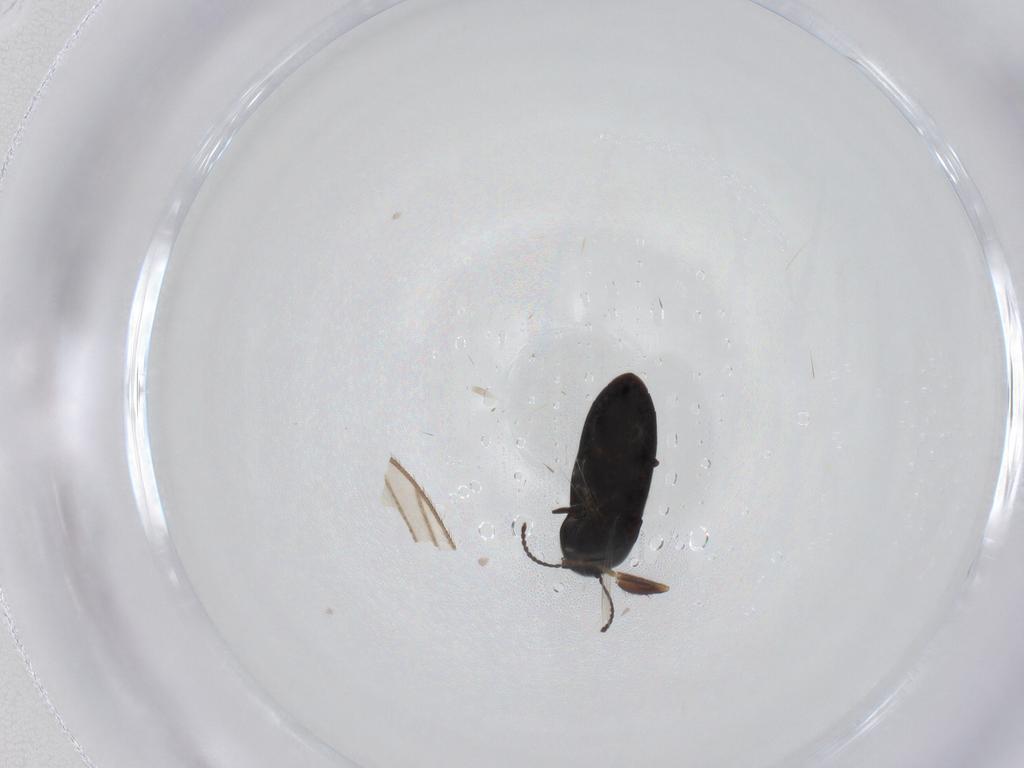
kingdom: Animalia
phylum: Arthropoda
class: Insecta
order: Coleoptera
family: Elateridae
